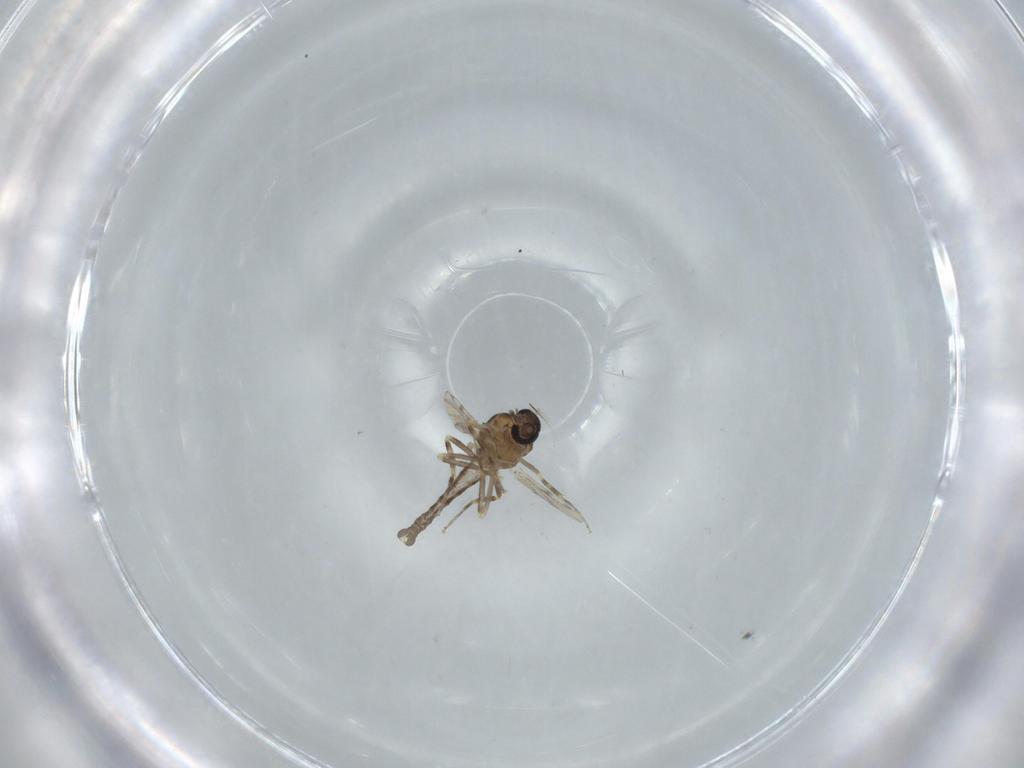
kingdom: Animalia
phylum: Arthropoda
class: Insecta
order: Diptera
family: Ceratopogonidae
